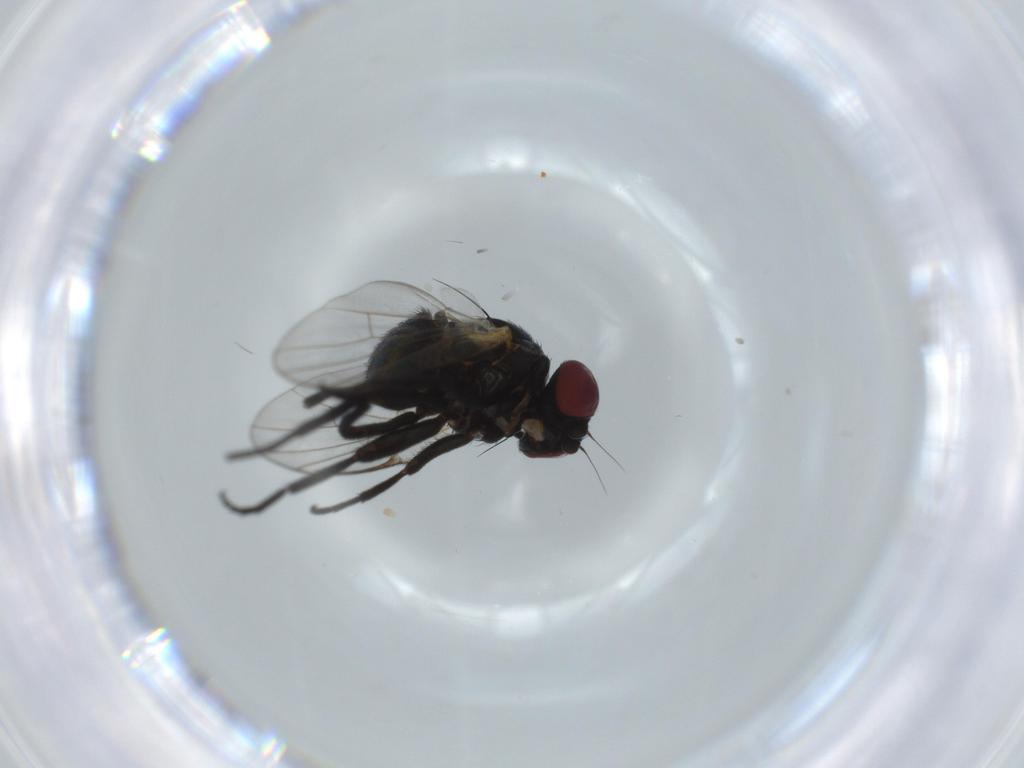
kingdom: Animalia
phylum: Arthropoda
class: Insecta
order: Diptera
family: Agromyzidae
